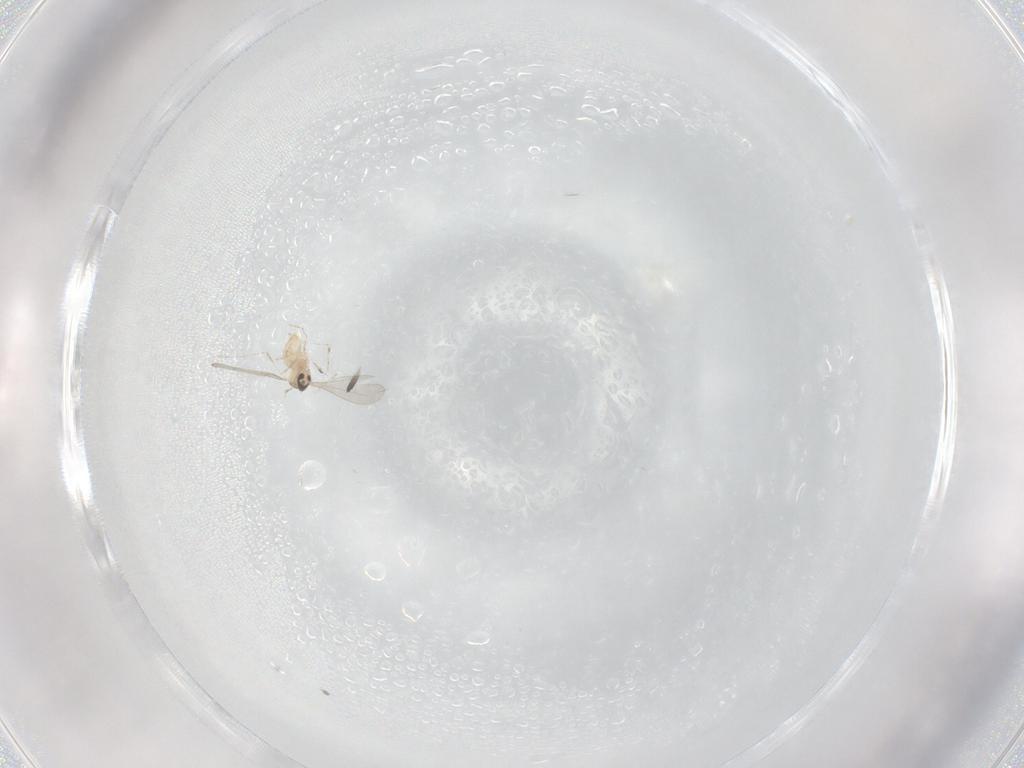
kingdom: Animalia
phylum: Arthropoda
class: Insecta
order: Diptera
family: Cecidomyiidae
